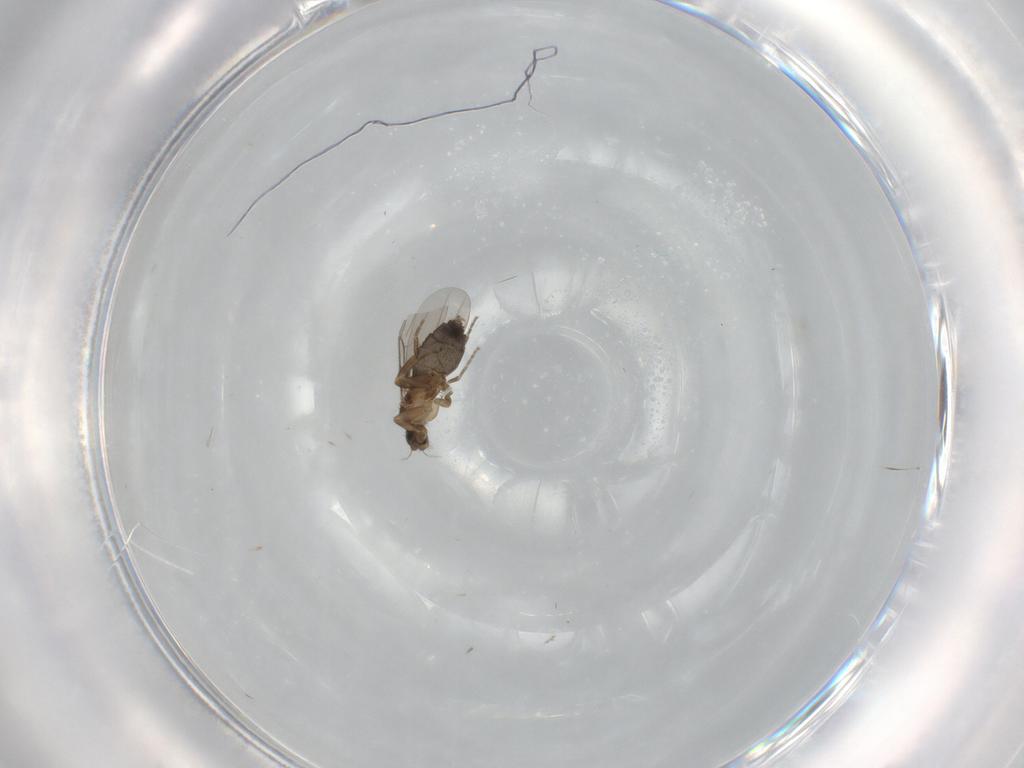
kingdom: Animalia
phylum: Arthropoda
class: Insecta
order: Diptera
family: Phoridae
